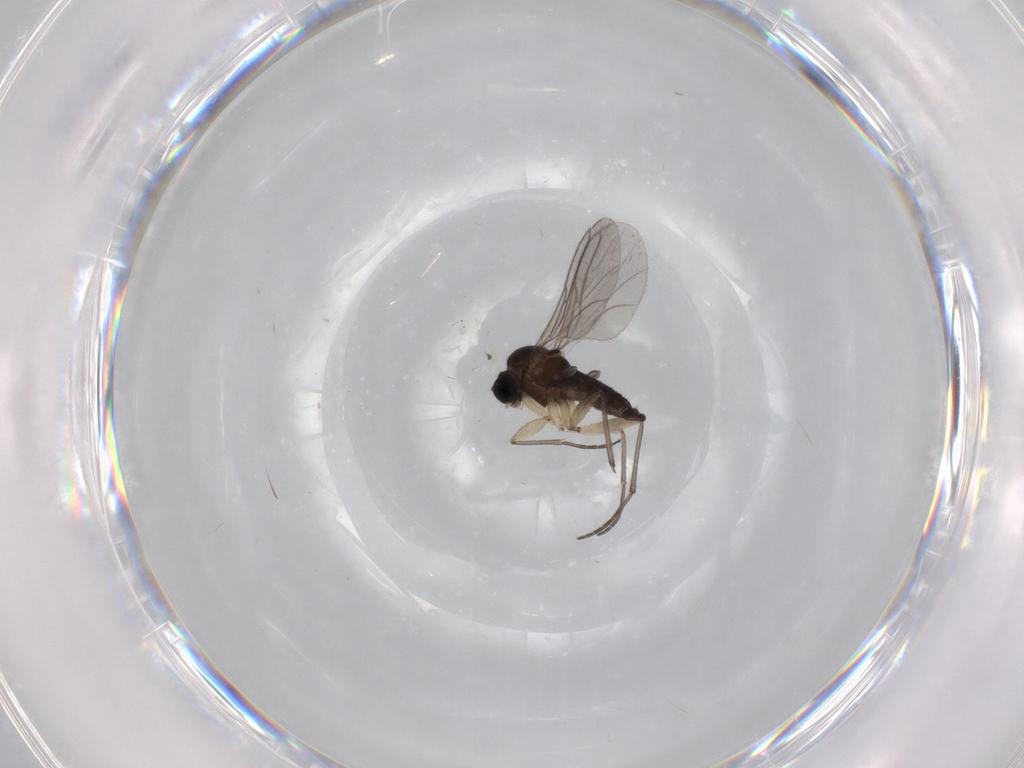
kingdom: Animalia
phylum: Arthropoda
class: Insecta
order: Diptera
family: Sciaridae
